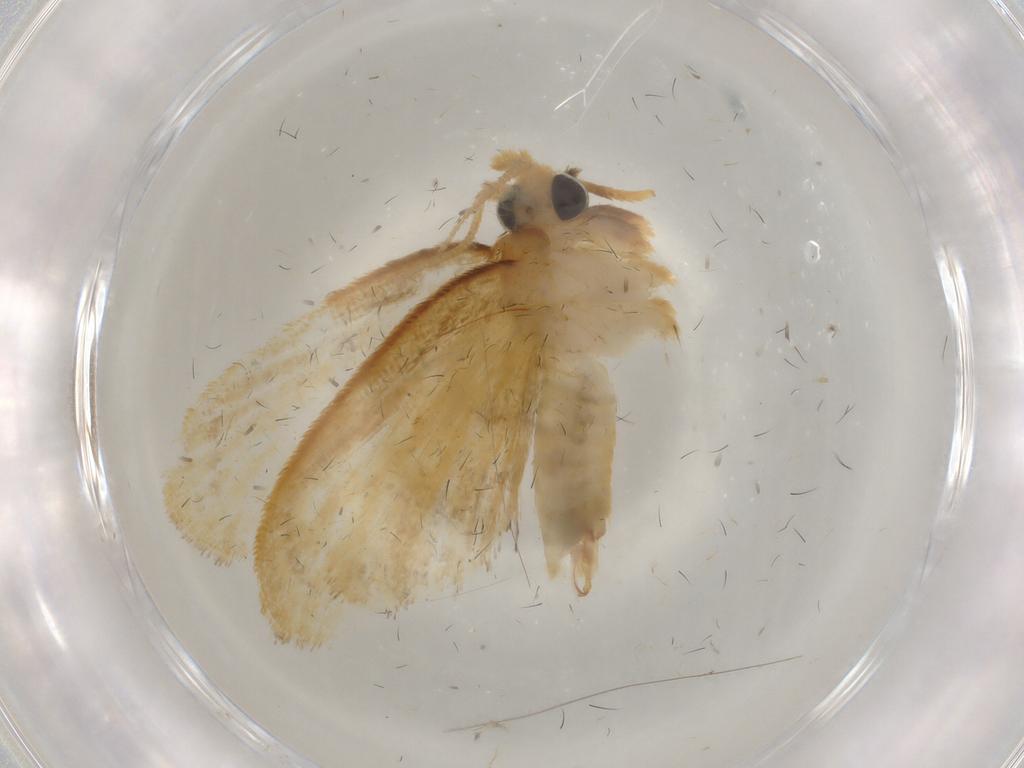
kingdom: Animalia
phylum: Arthropoda
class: Insecta
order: Lepidoptera
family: Psychidae
